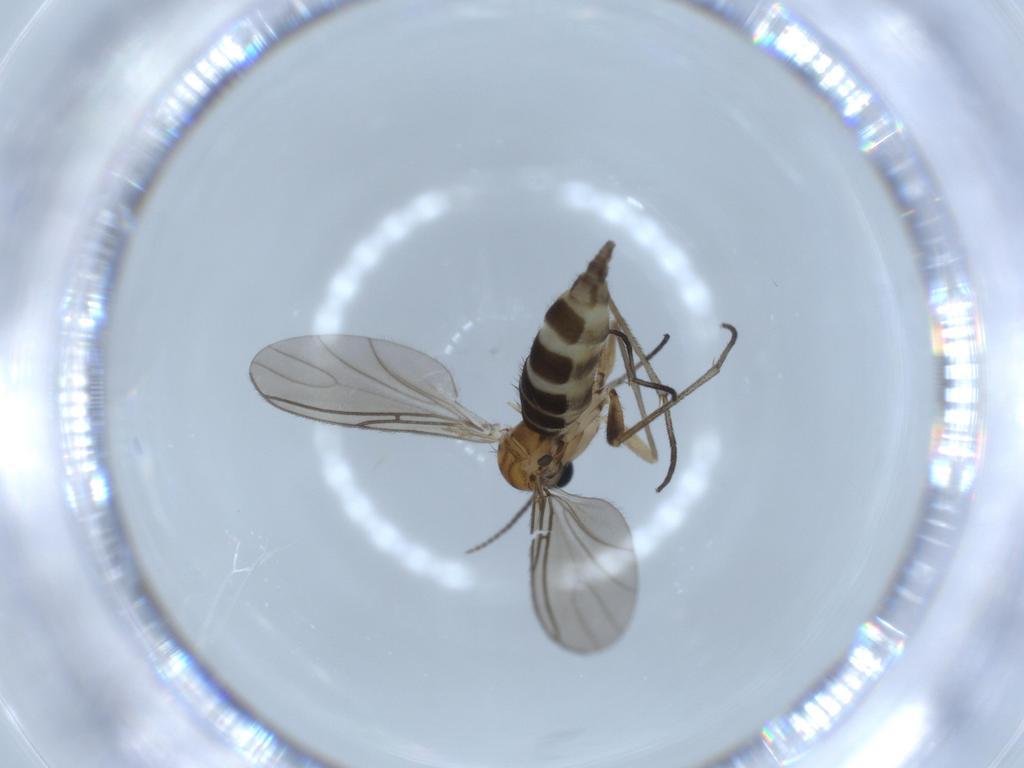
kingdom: Animalia
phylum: Arthropoda
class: Insecta
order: Diptera
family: Sciaridae
